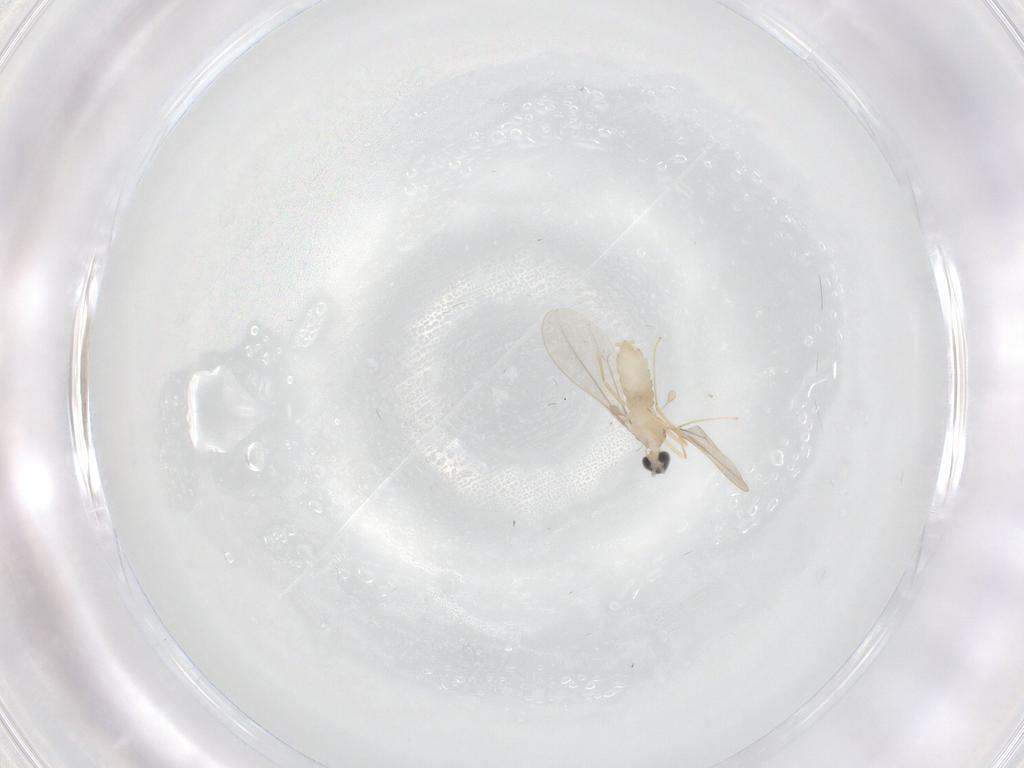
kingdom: Animalia
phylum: Arthropoda
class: Insecta
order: Diptera
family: Cecidomyiidae
